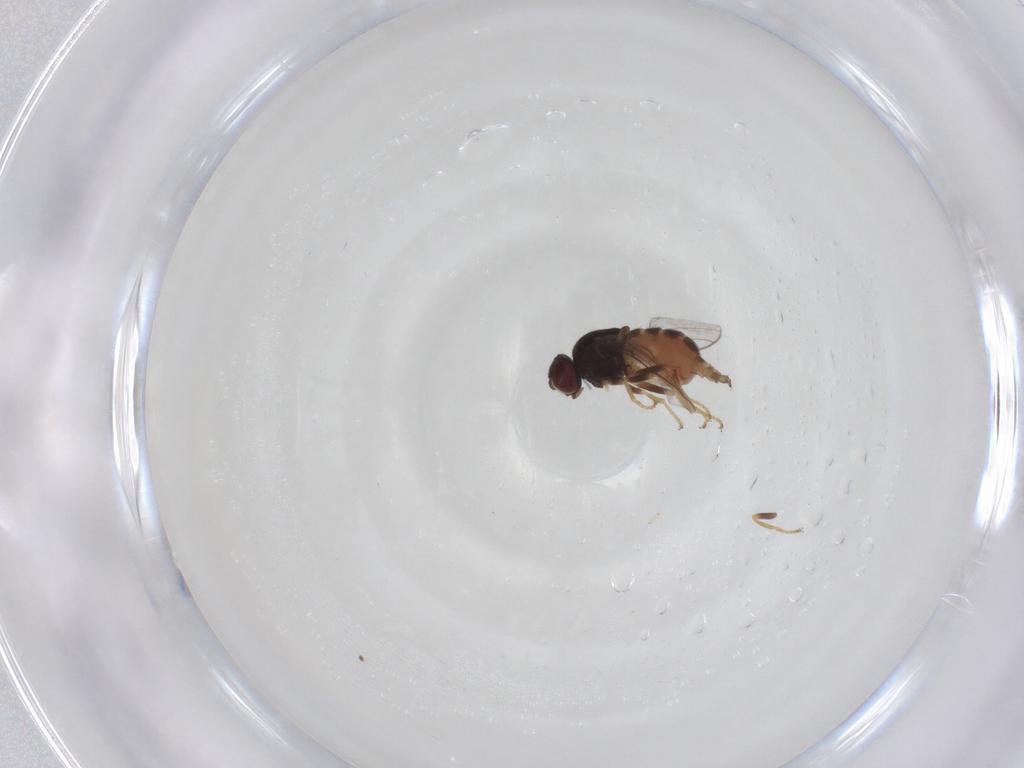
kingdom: Animalia
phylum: Arthropoda
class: Insecta
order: Diptera
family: Chloropidae
